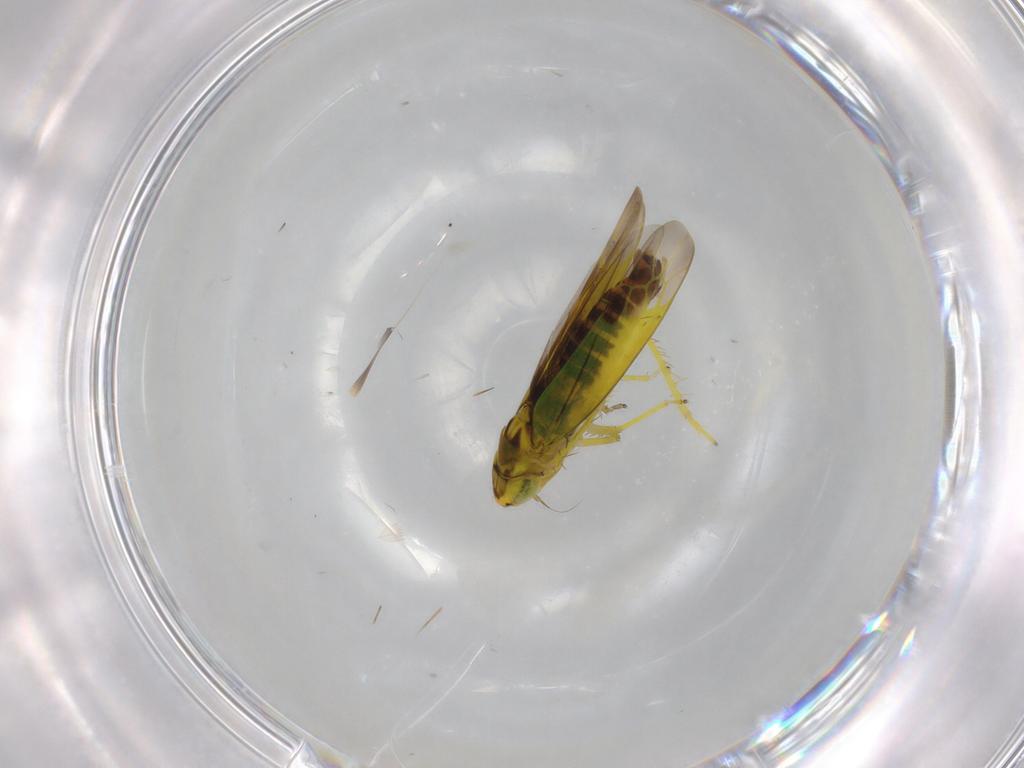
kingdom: Animalia
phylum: Arthropoda
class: Insecta
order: Hemiptera
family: Cicadellidae
